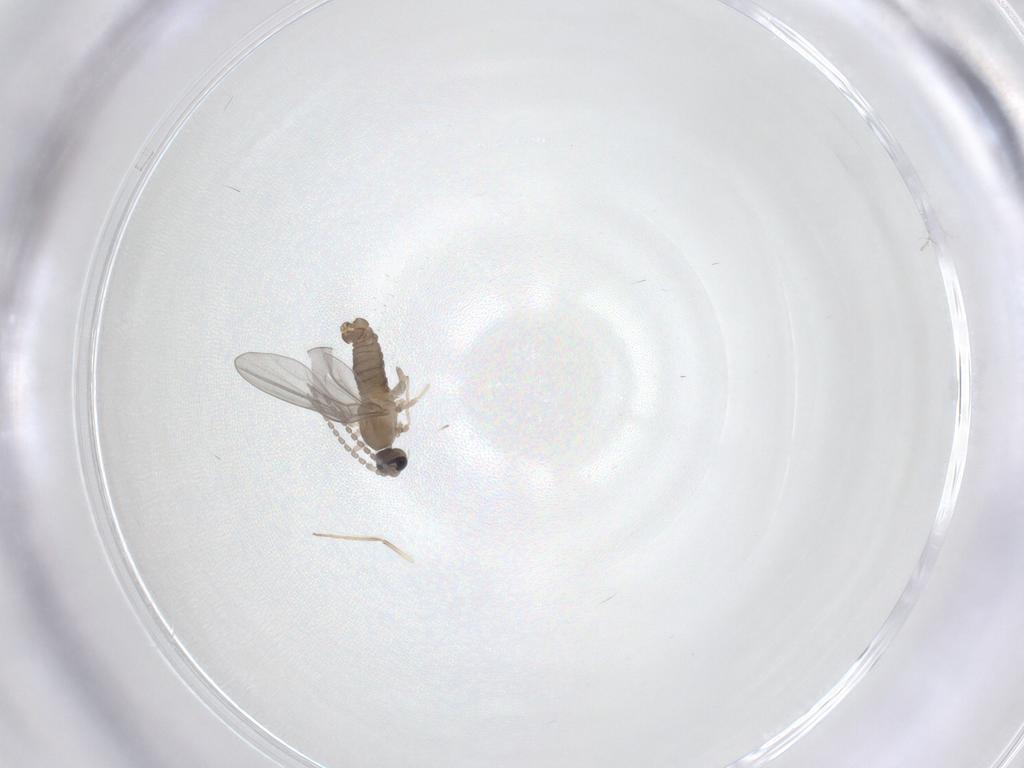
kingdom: Animalia
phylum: Arthropoda
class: Insecta
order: Diptera
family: Cecidomyiidae
